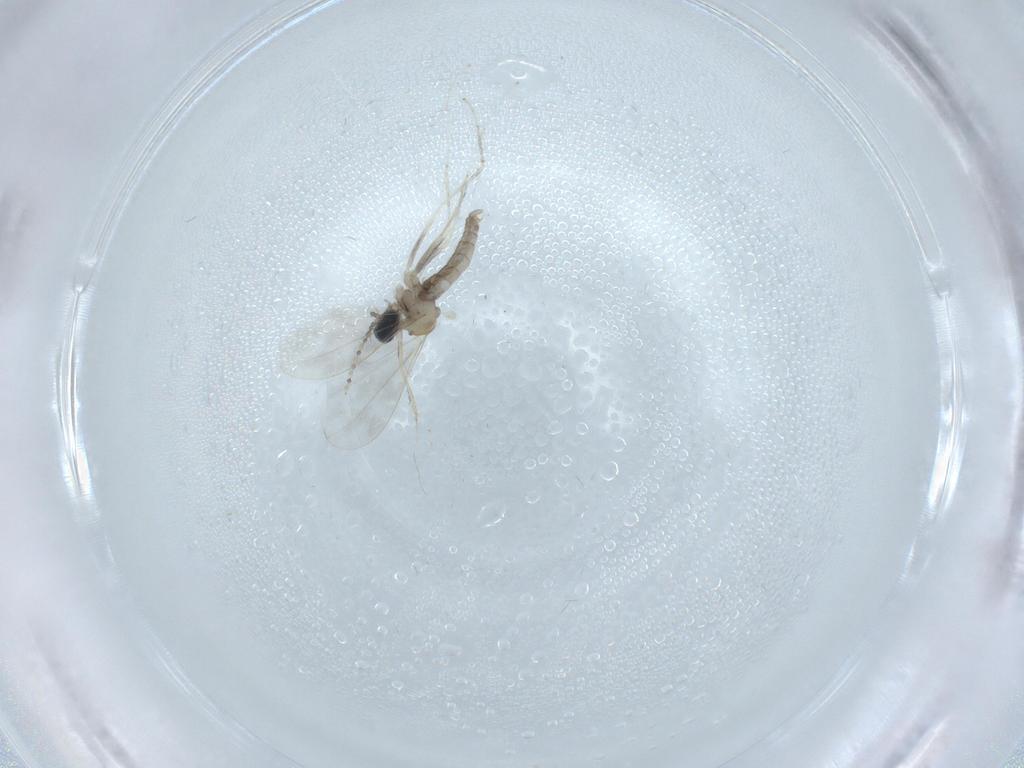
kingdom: Animalia
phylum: Arthropoda
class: Insecta
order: Diptera
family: Cecidomyiidae
